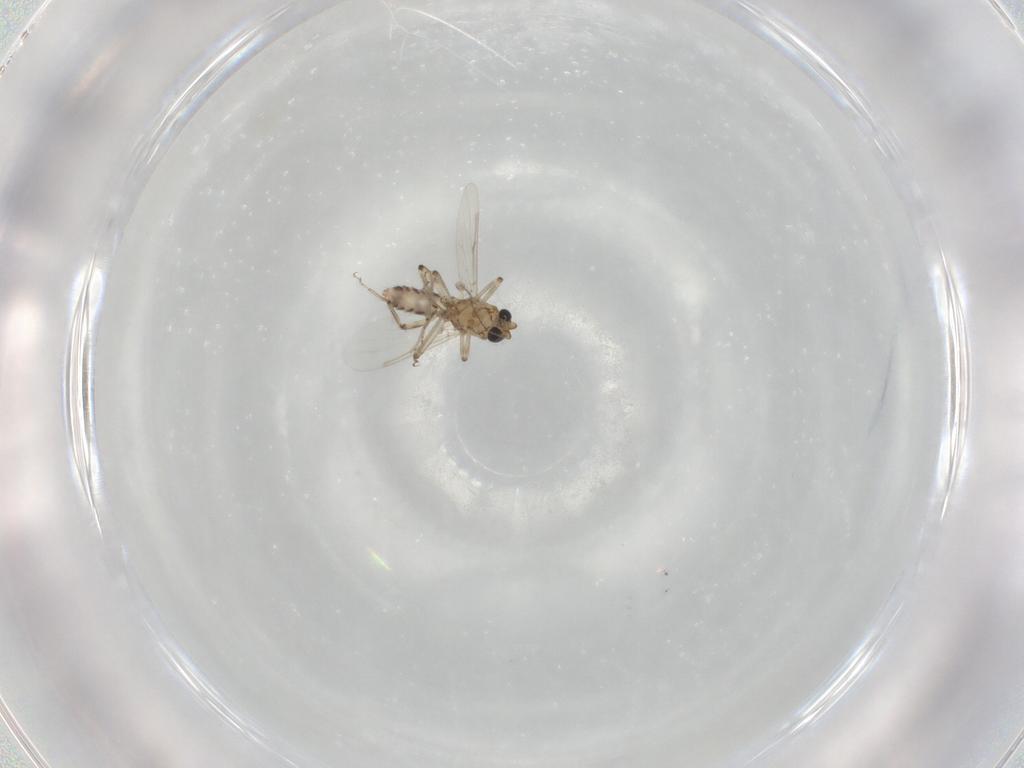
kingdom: Animalia
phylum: Arthropoda
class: Insecta
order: Diptera
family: Ceratopogonidae
